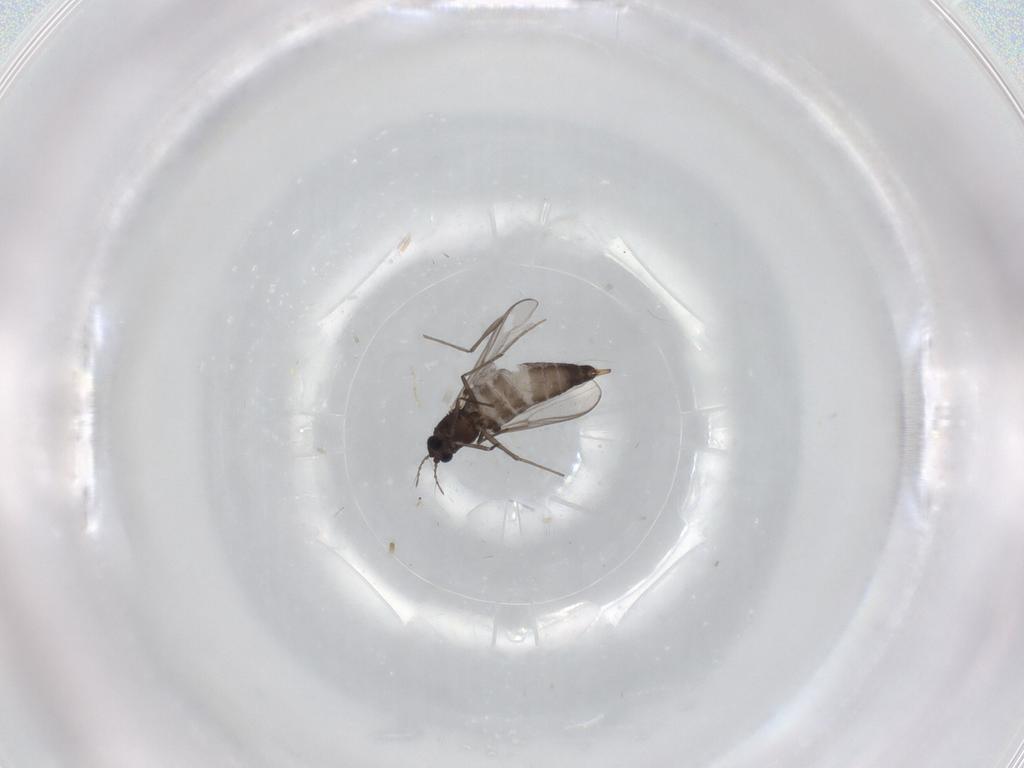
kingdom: Animalia
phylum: Arthropoda
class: Insecta
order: Diptera
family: Chironomidae
